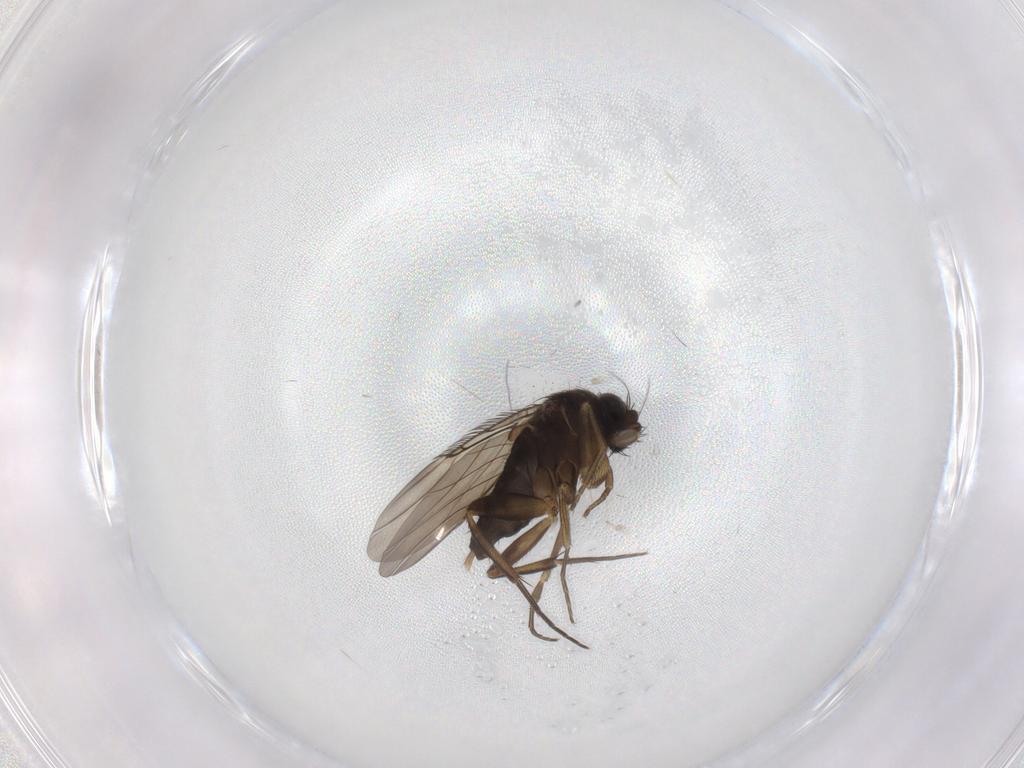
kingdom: Animalia
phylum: Arthropoda
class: Insecta
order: Diptera
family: Phoridae
